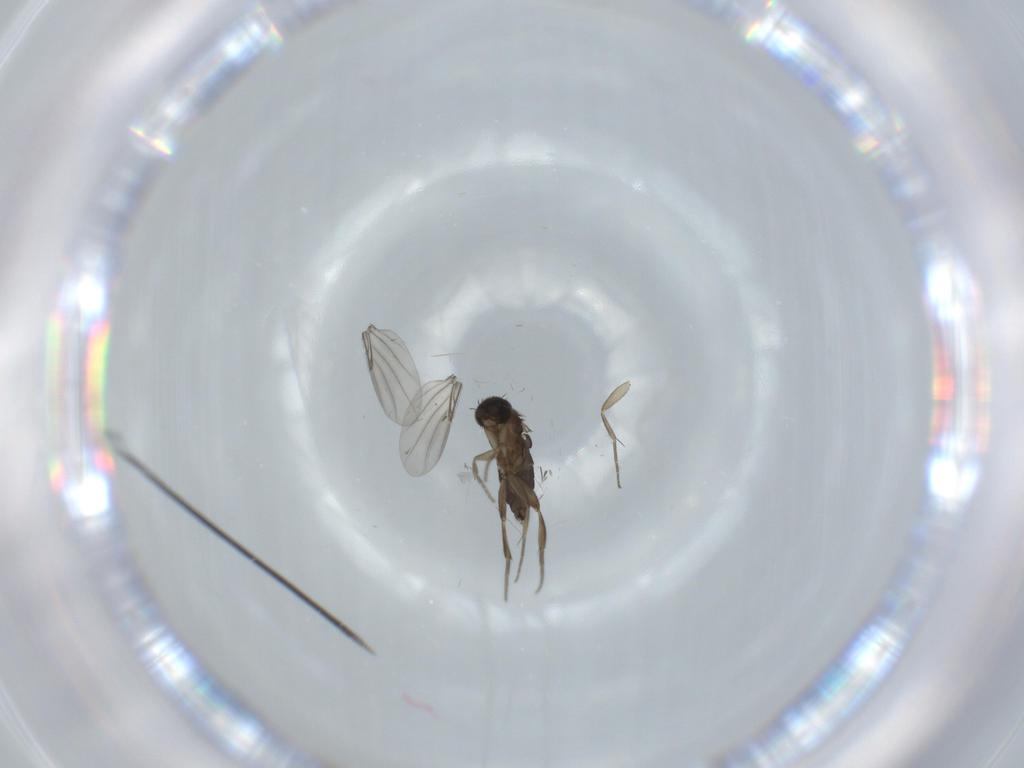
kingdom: Animalia
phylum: Arthropoda
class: Insecta
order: Diptera
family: Phoridae
